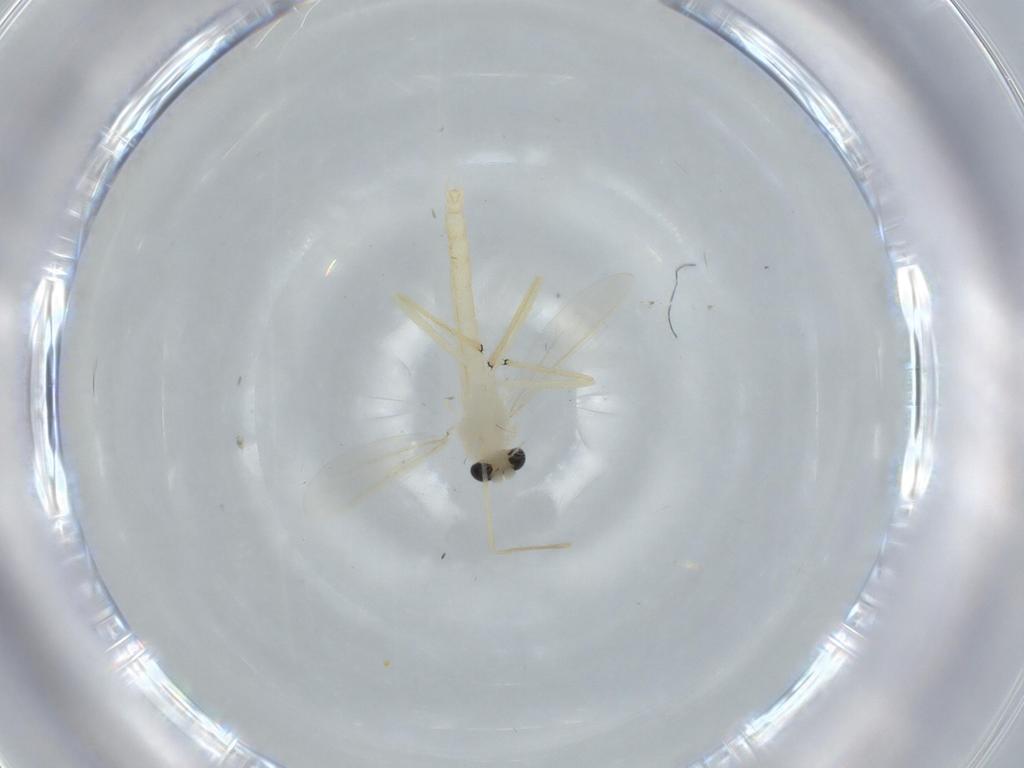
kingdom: Animalia
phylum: Arthropoda
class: Insecta
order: Diptera
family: Chironomidae
